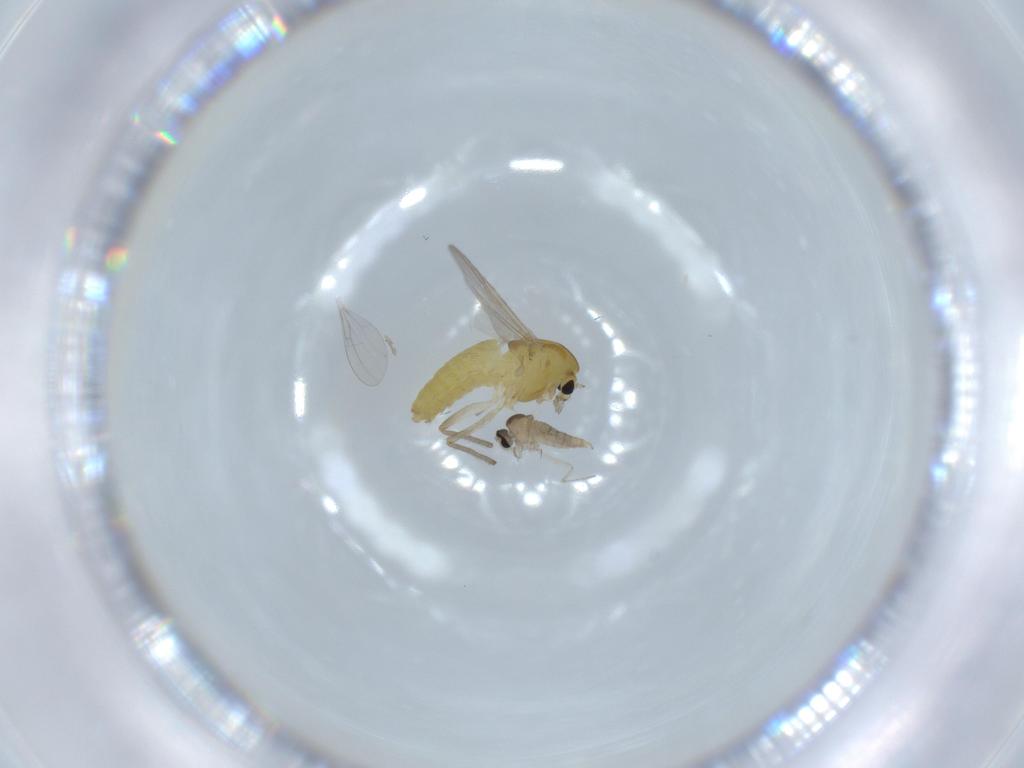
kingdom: Animalia
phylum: Arthropoda
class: Insecta
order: Diptera
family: Cecidomyiidae
